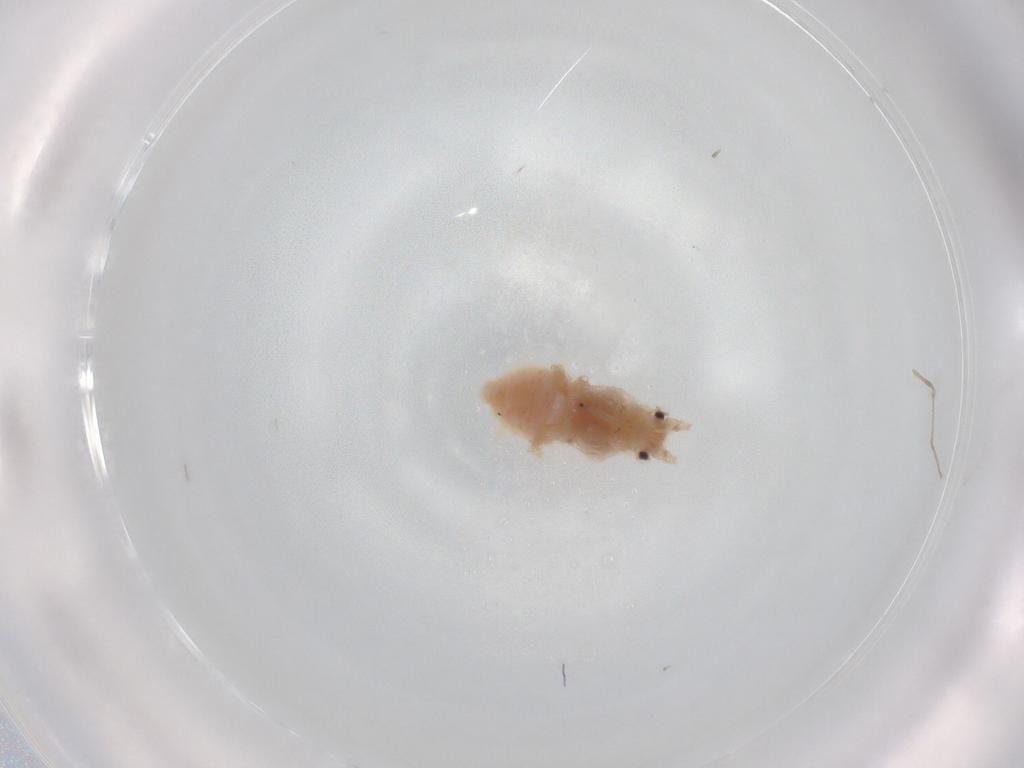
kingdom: Animalia
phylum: Arthropoda
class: Insecta
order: Hemiptera
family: Aphididae
